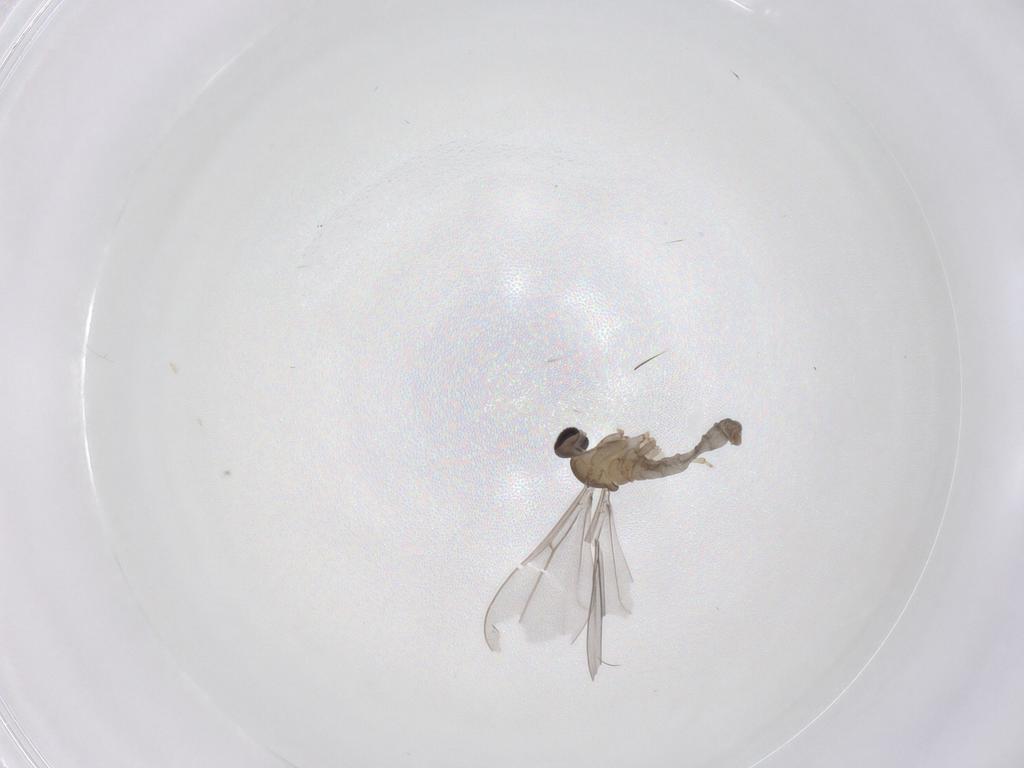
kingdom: Animalia
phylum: Arthropoda
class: Insecta
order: Diptera
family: Cecidomyiidae
